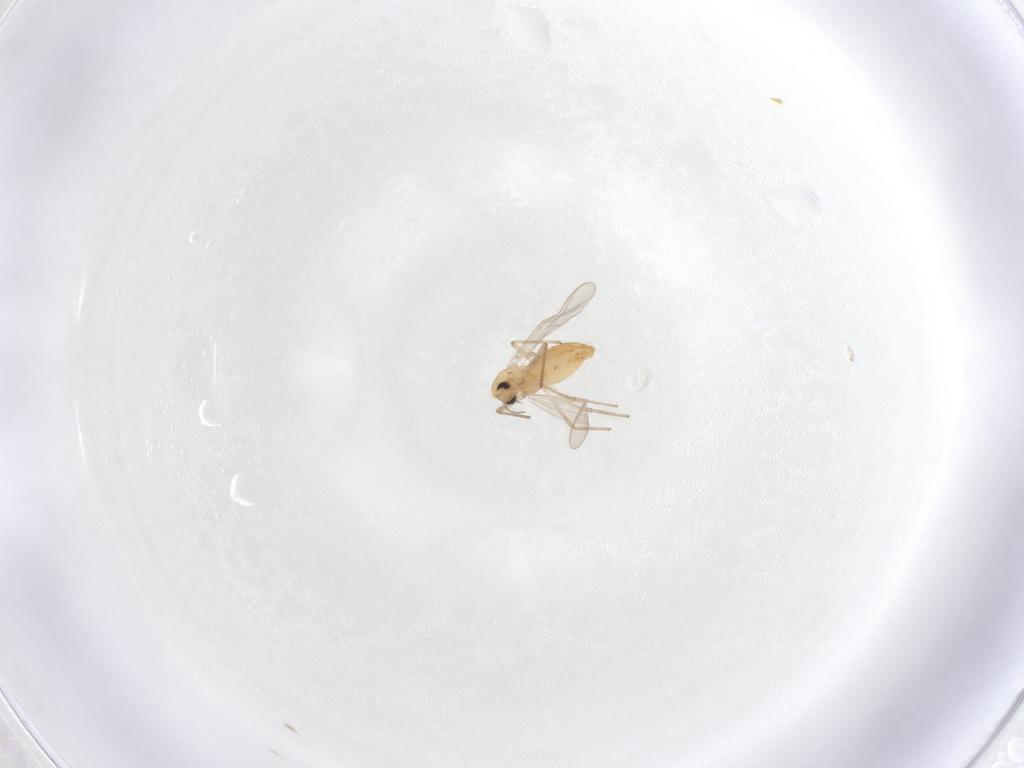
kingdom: Animalia
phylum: Arthropoda
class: Insecta
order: Diptera
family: Chironomidae
